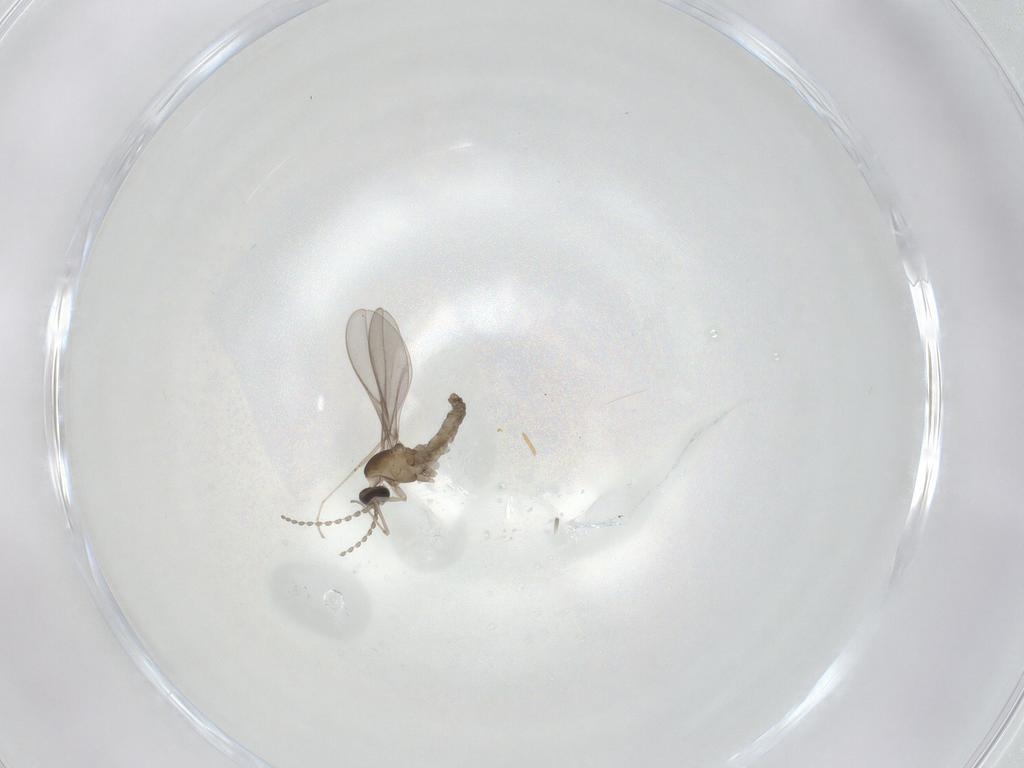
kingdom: Animalia
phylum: Arthropoda
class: Insecta
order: Diptera
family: Cecidomyiidae
